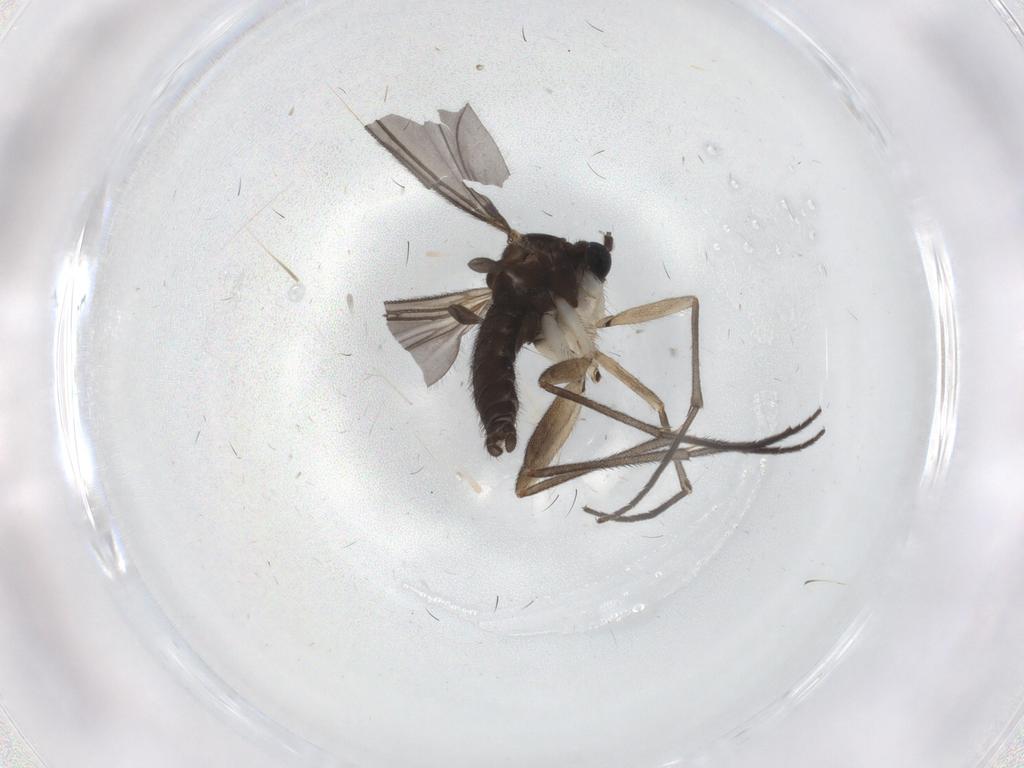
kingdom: Animalia
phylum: Arthropoda
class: Insecta
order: Diptera
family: Sciaridae
